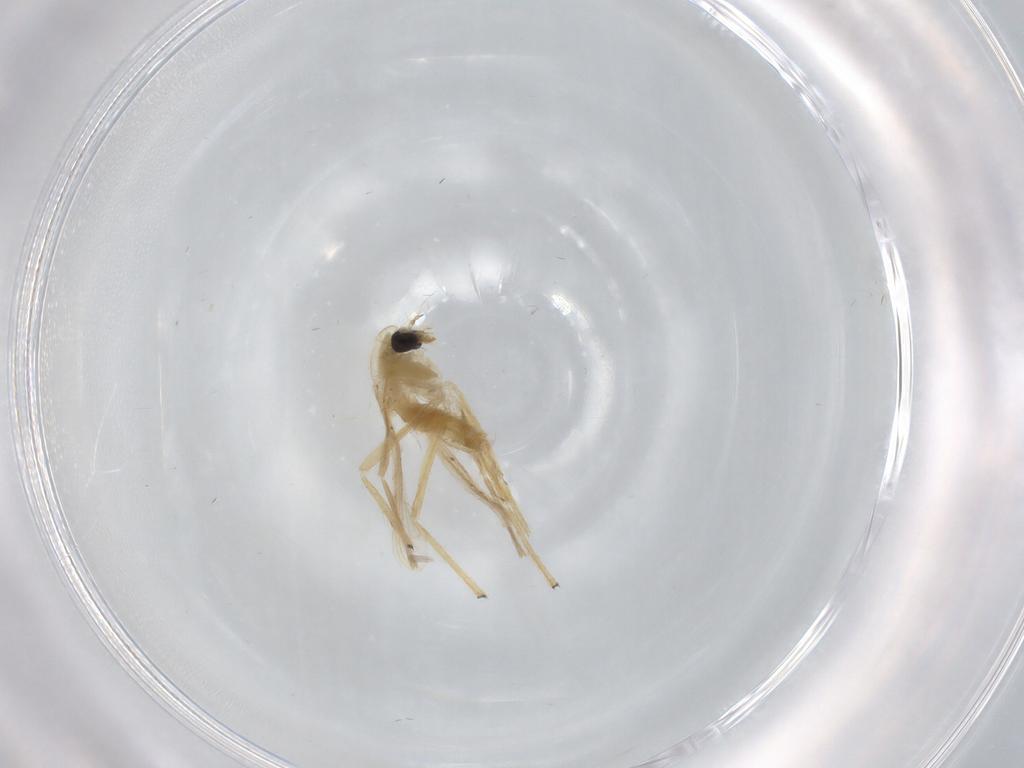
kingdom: Animalia
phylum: Arthropoda
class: Insecta
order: Diptera
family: Chironomidae
